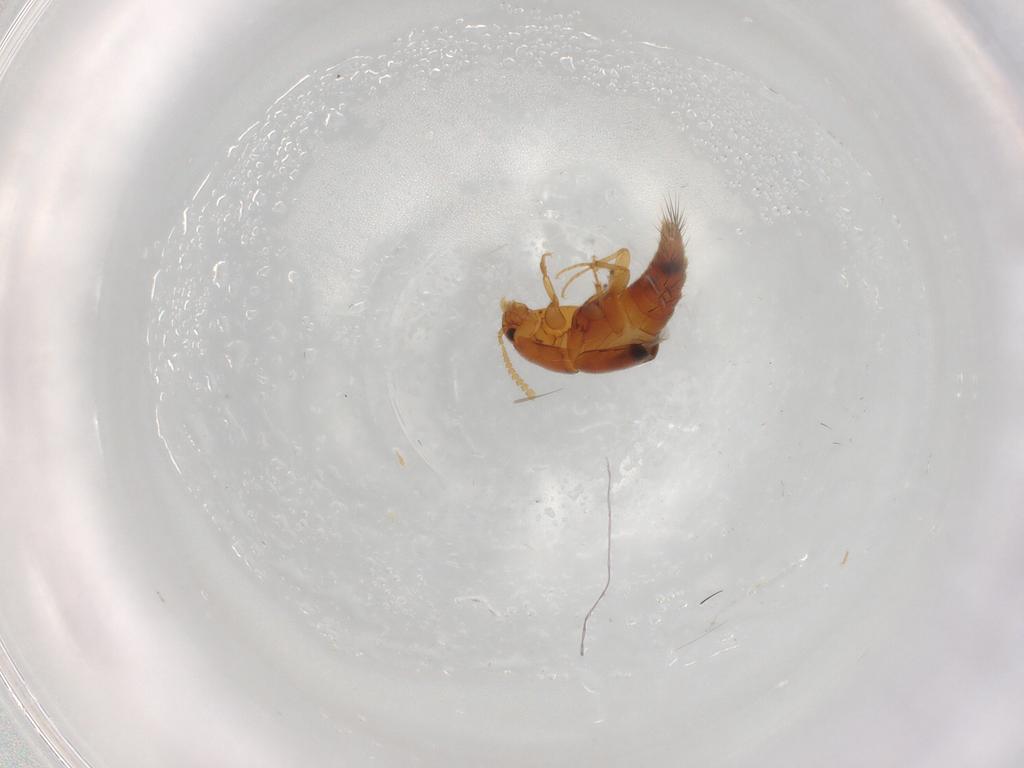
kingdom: Animalia
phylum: Arthropoda
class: Insecta
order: Coleoptera
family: Staphylinidae
